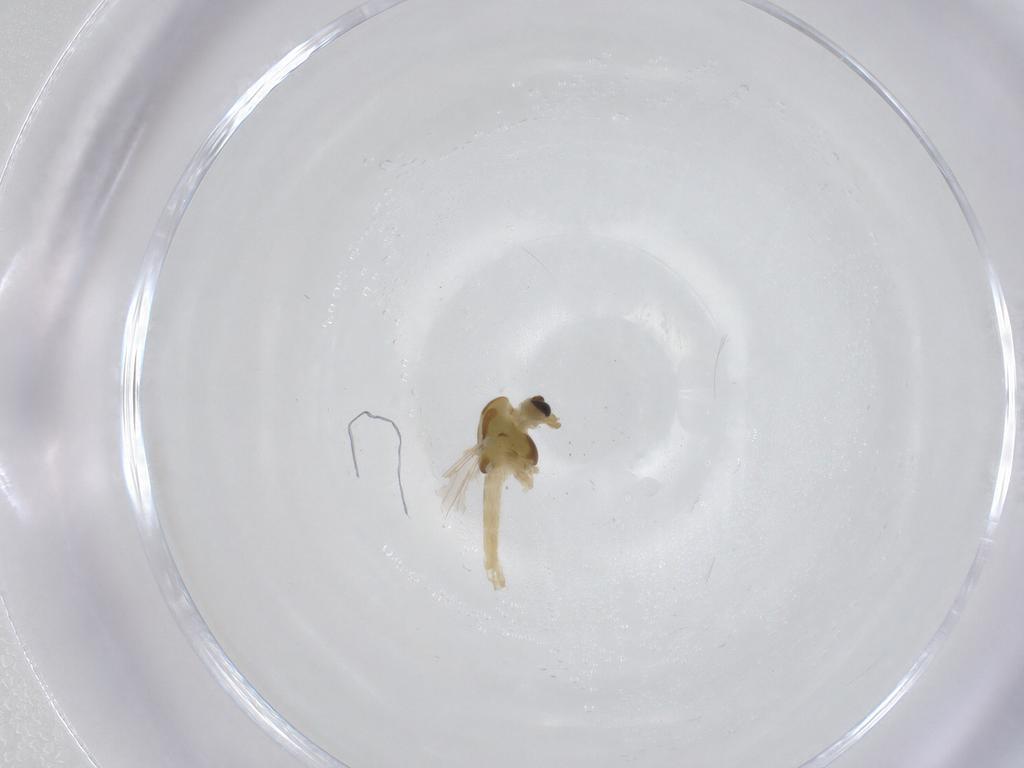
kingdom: Animalia
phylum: Arthropoda
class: Insecta
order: Diptera
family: Chironomidae
